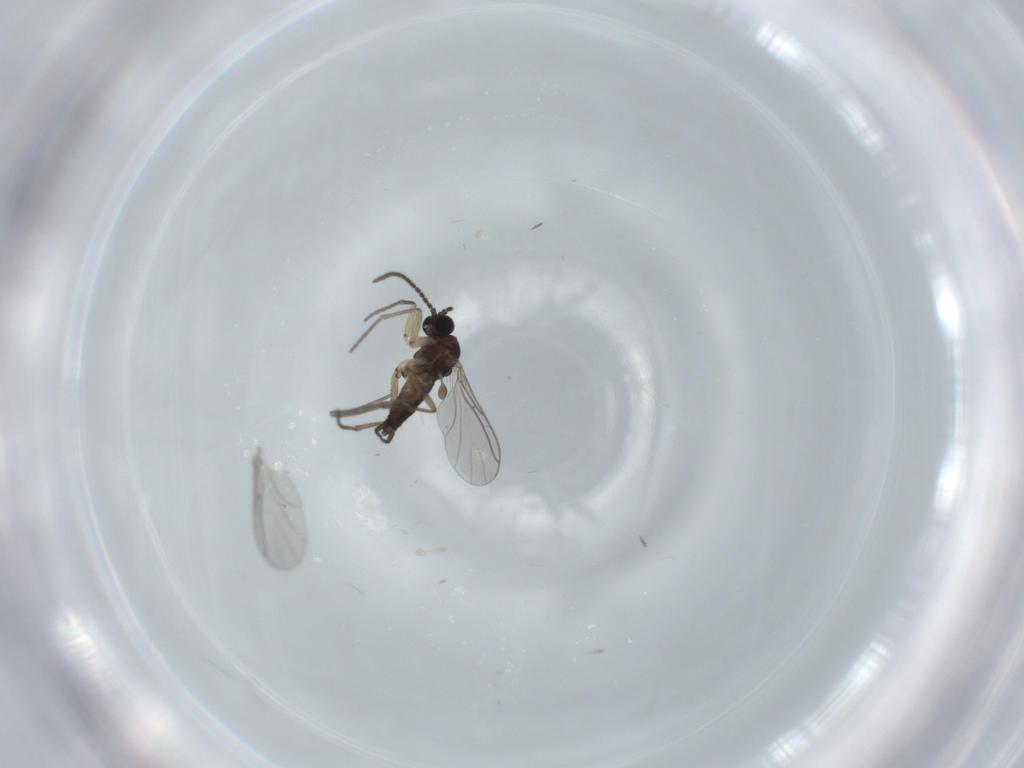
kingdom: Animalia
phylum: Arthropoda
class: Insecta
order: Diptera
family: Sciaridae
